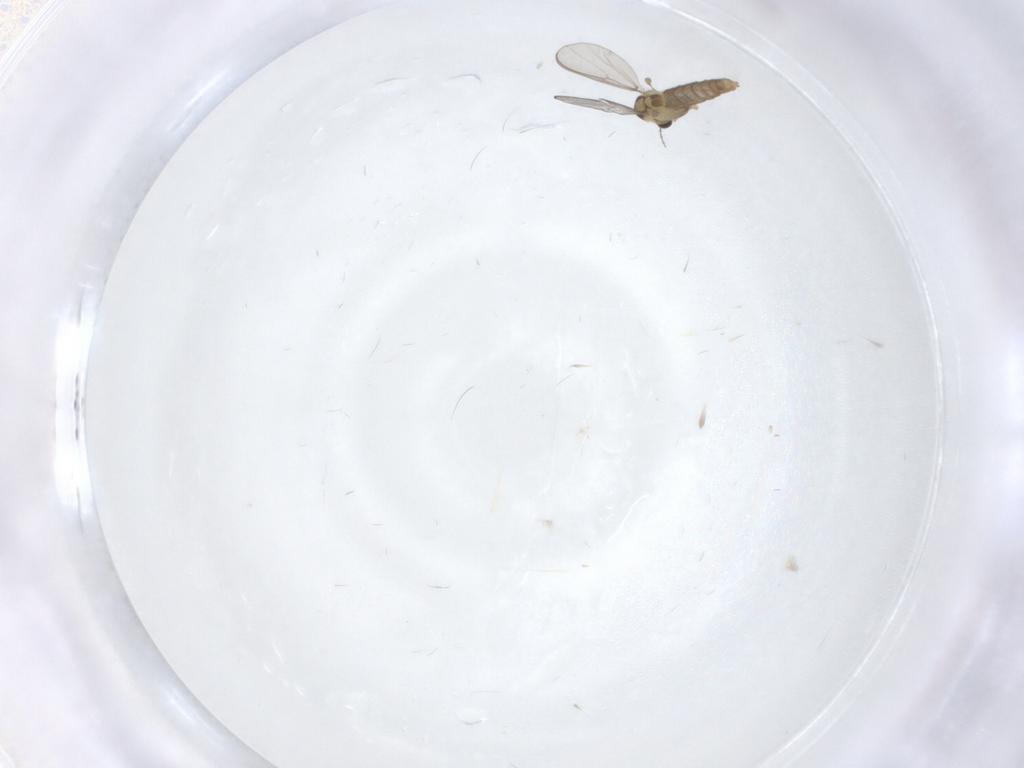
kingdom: Animalia
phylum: Arthropoda
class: Insecta
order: Diptera
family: Chironomidae
